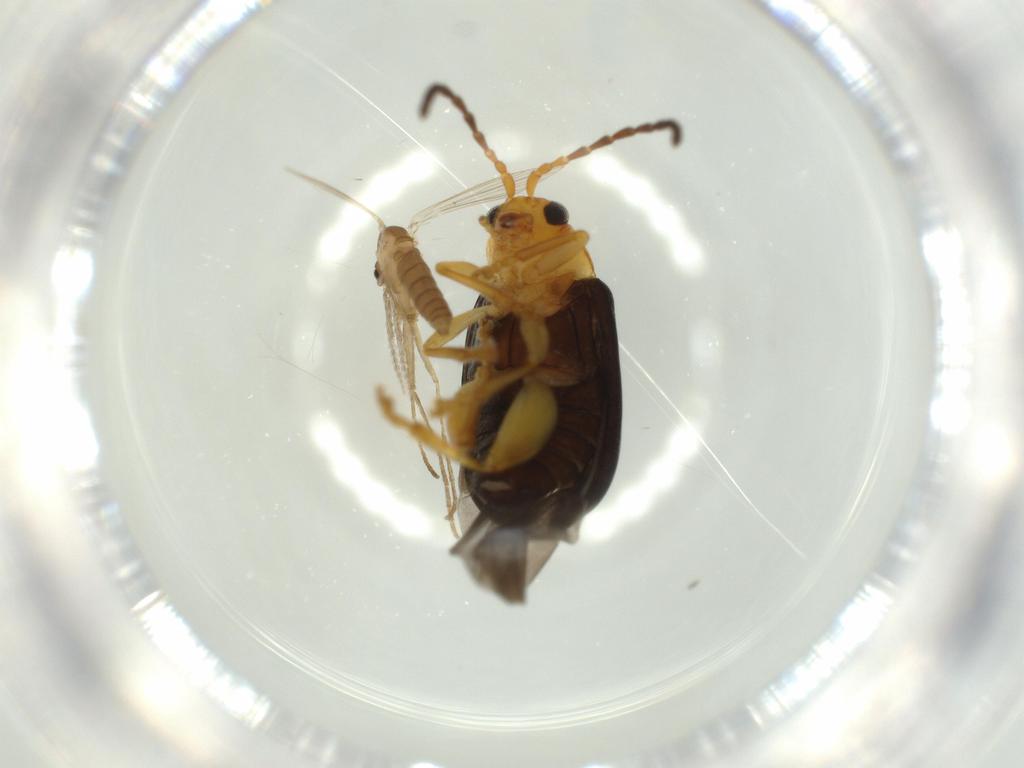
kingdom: Animalia
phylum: Arthropoda
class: Insecta
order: Diptera
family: Psychodidae
